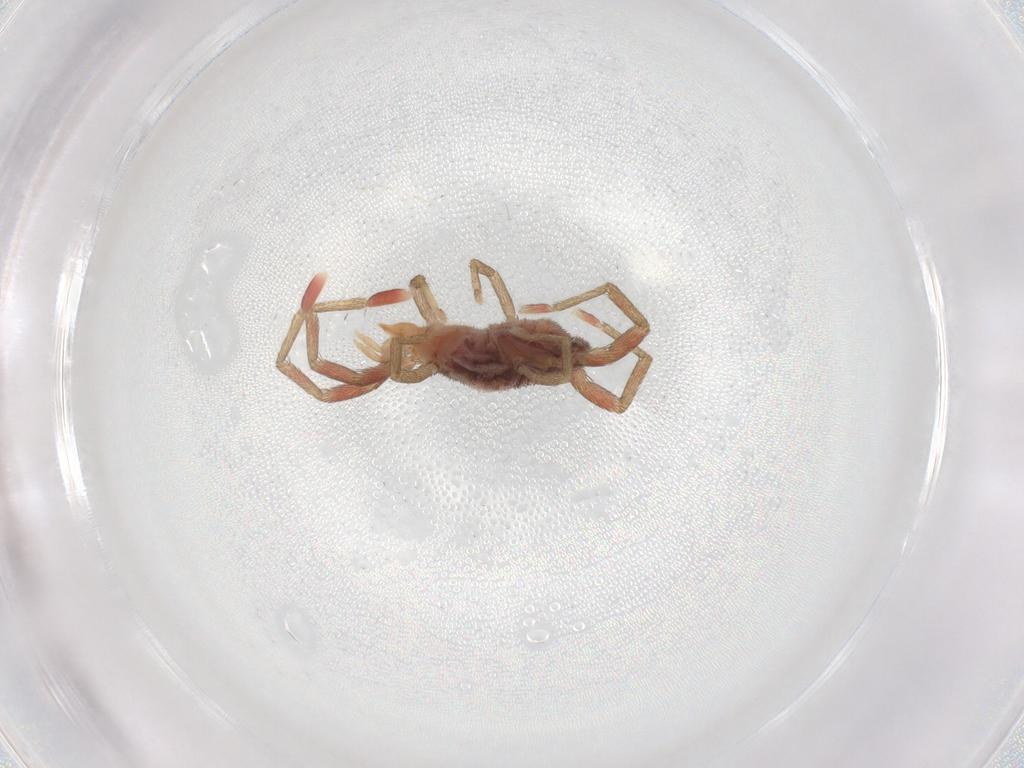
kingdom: Animalia
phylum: Arthropoda
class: Arachnida
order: Trombidiformes
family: Erythraeidae
